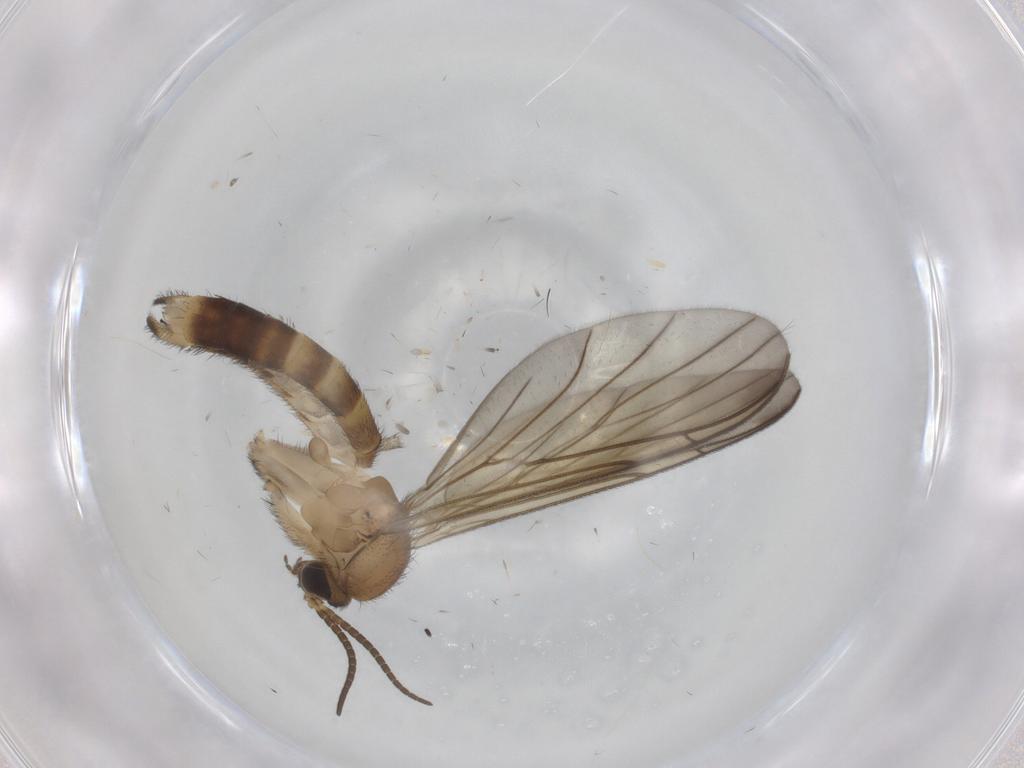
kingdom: Animalia
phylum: Arthropoda
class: Insecta
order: Diptera
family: Keroplatidae
